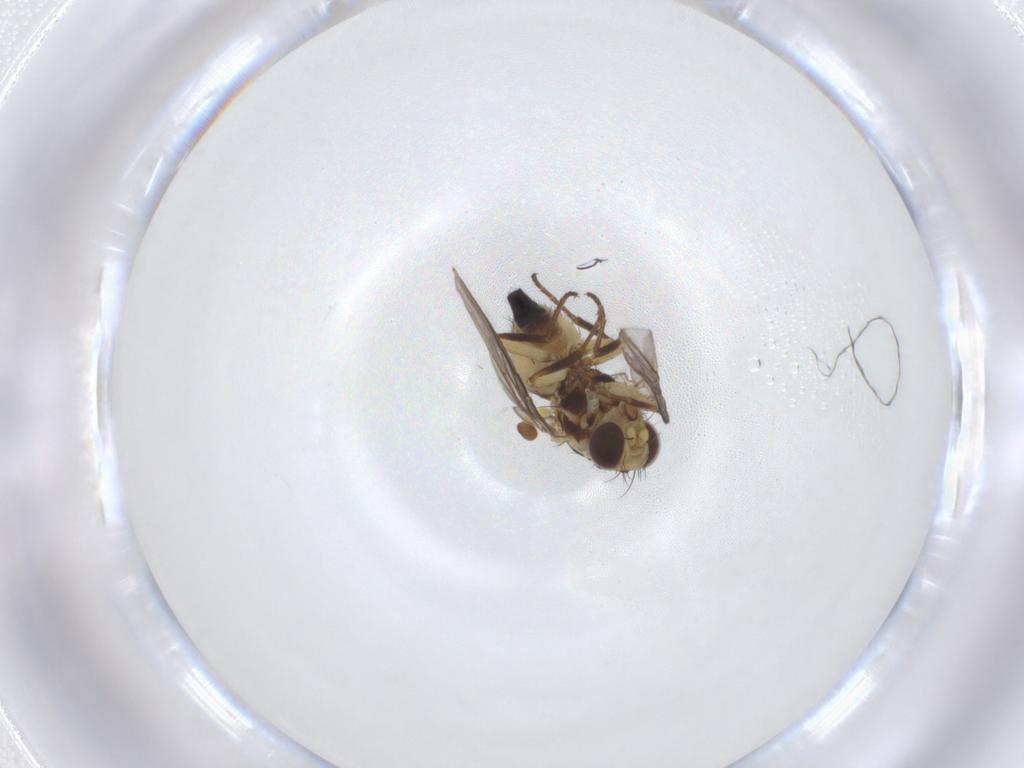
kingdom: Animalia
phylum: Arthropoda
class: Insecta
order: Diptera
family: Agromyzidae
